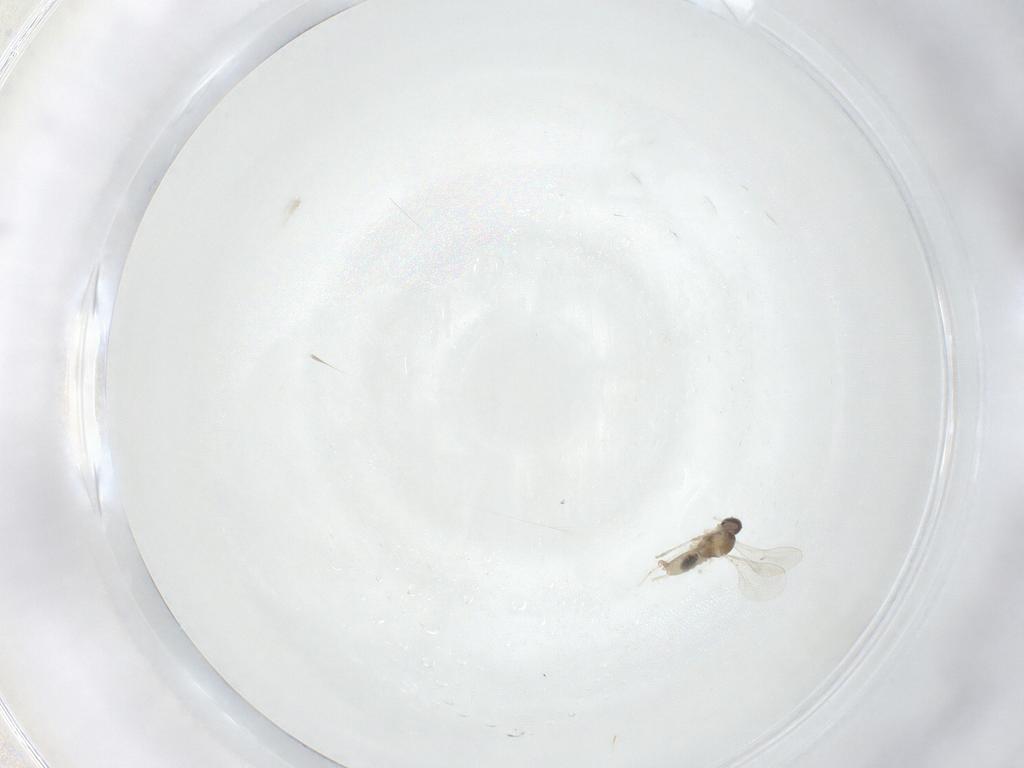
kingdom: Animalia
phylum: Arthropoda
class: Insecta
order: Diptera
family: Cecidomyiidae
